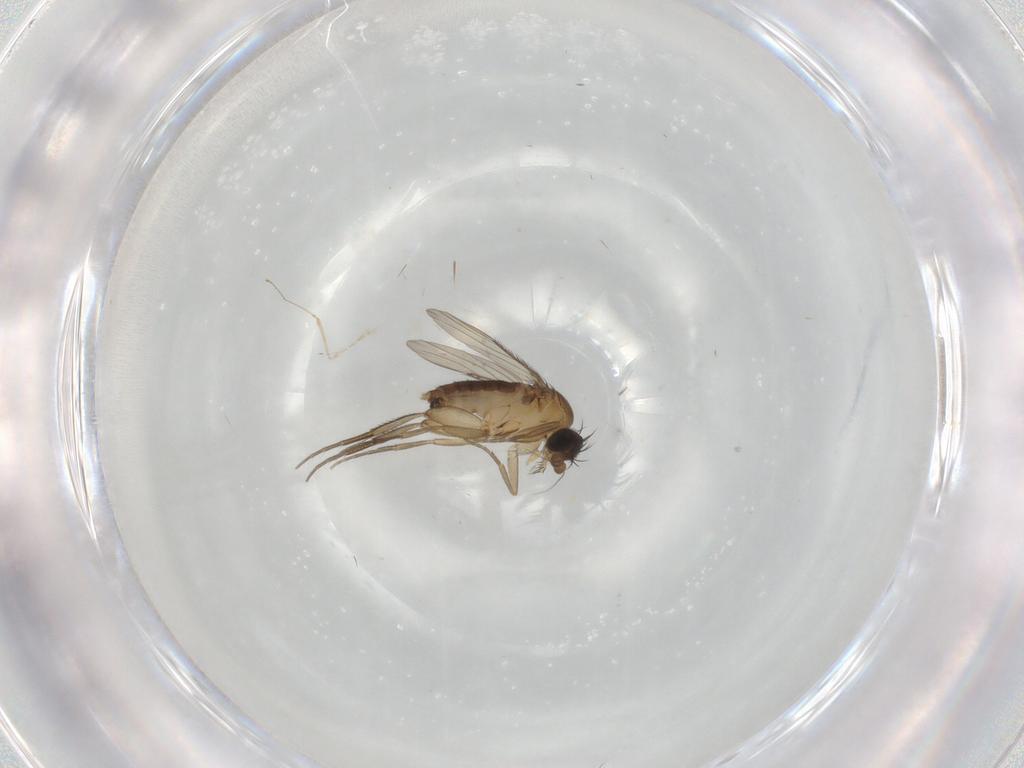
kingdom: Animalia
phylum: Arthropoda
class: Insecta
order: Diptera
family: Phoridae
